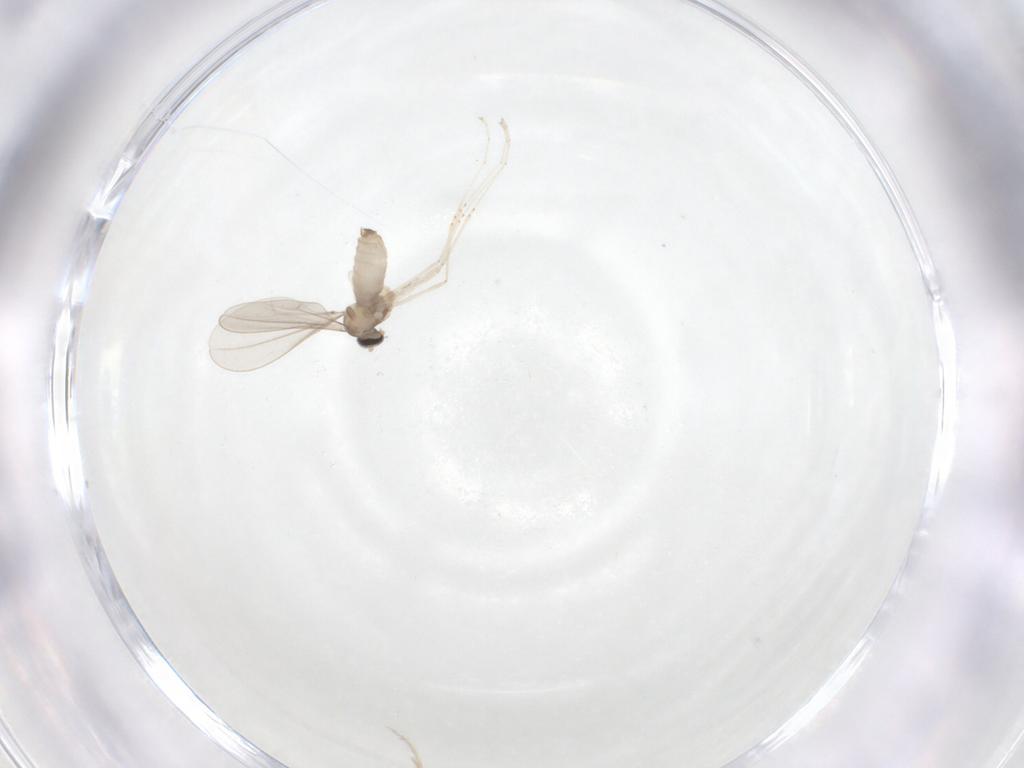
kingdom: Animalia
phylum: Arthropoda
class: Insecta
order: Diptera
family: Cecidomyiidae
